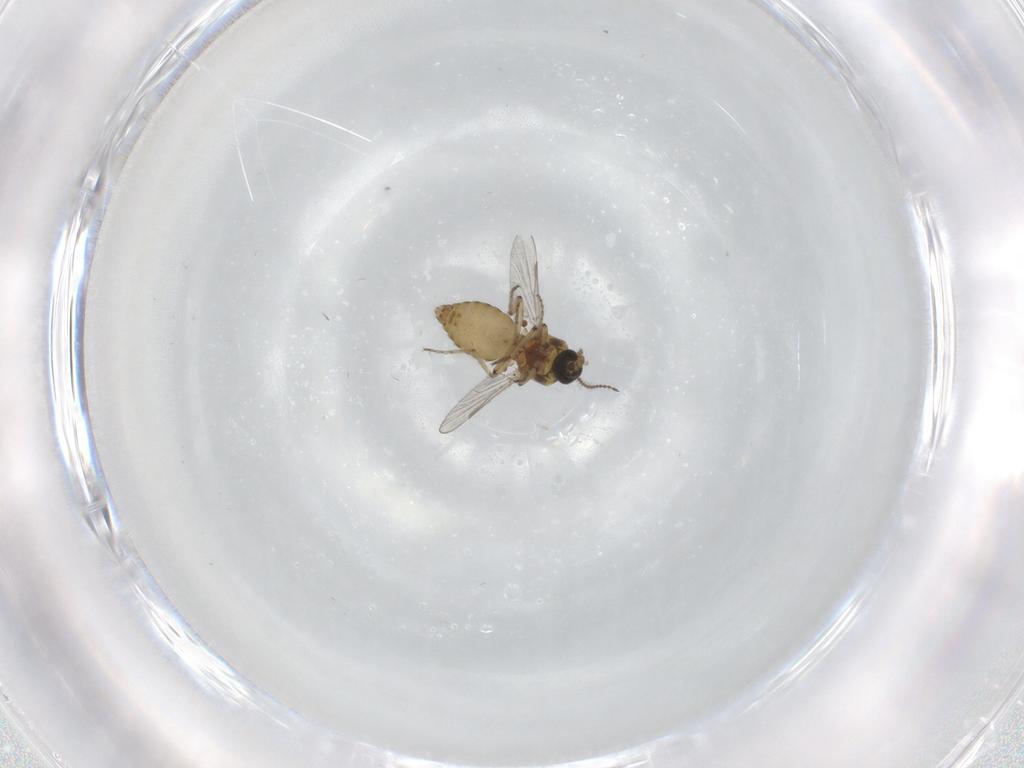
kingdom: Animalia
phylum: Arthropoda
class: Insecta
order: Diptera
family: Ceratopogonidae
